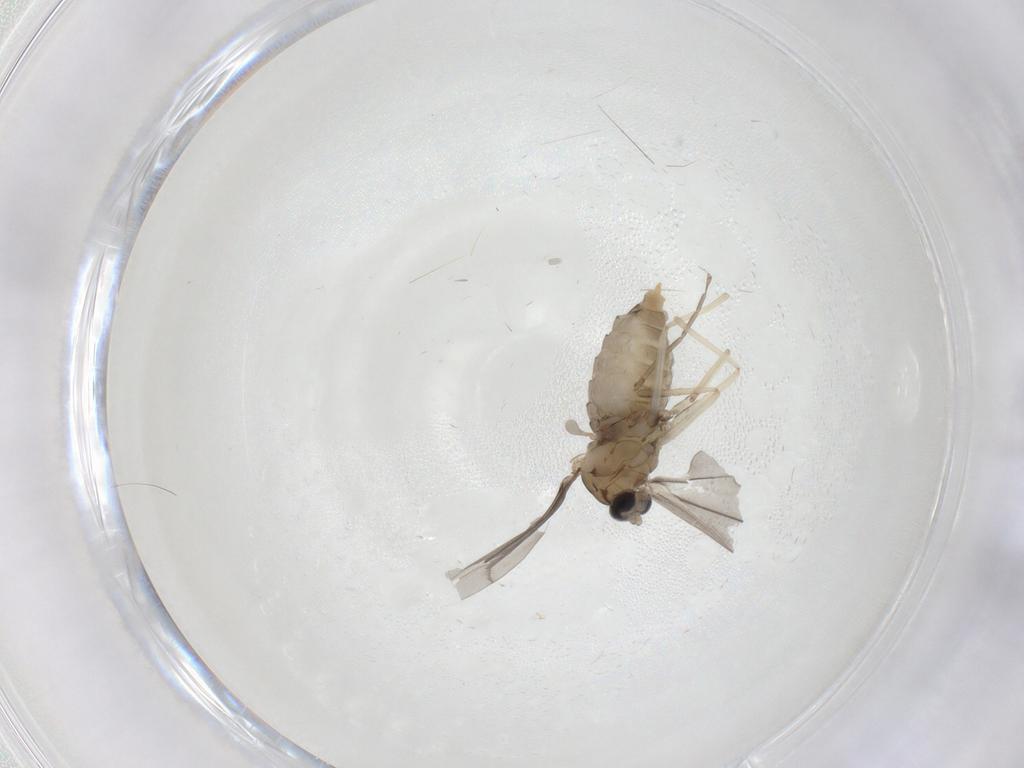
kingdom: Animalia
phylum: Arthropoda
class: Insecta
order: Diptera
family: Cecidomyiidae
